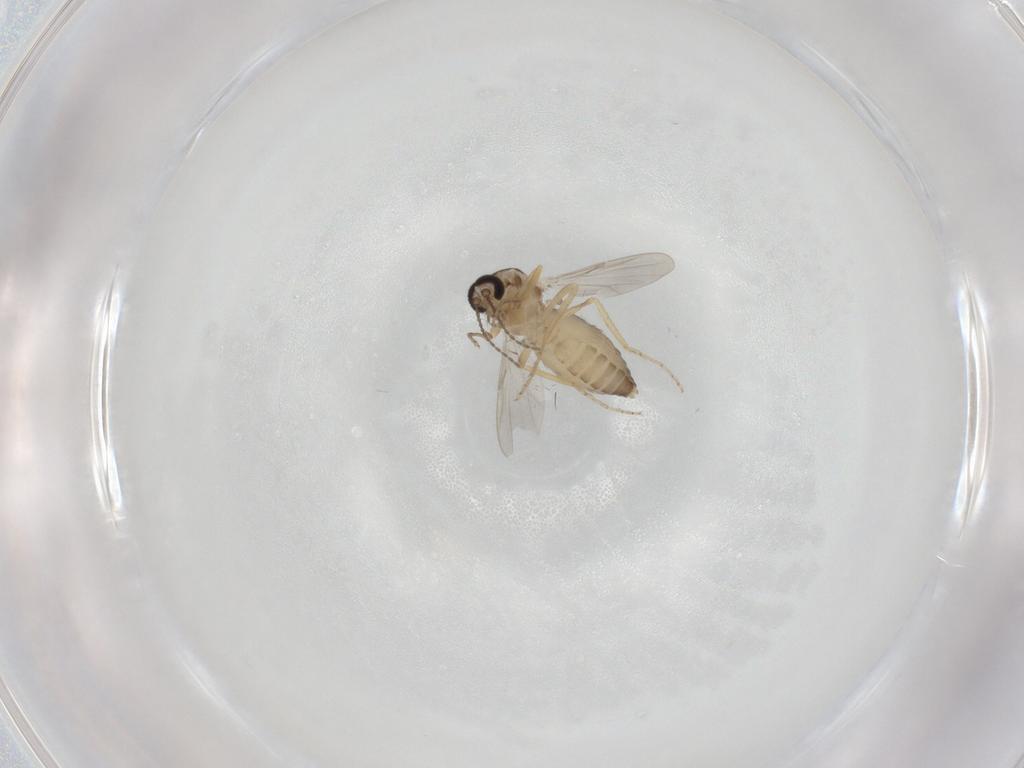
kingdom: Animalia
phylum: Arthropoda
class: Insecta
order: Diptera
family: Ceratopogonidae
